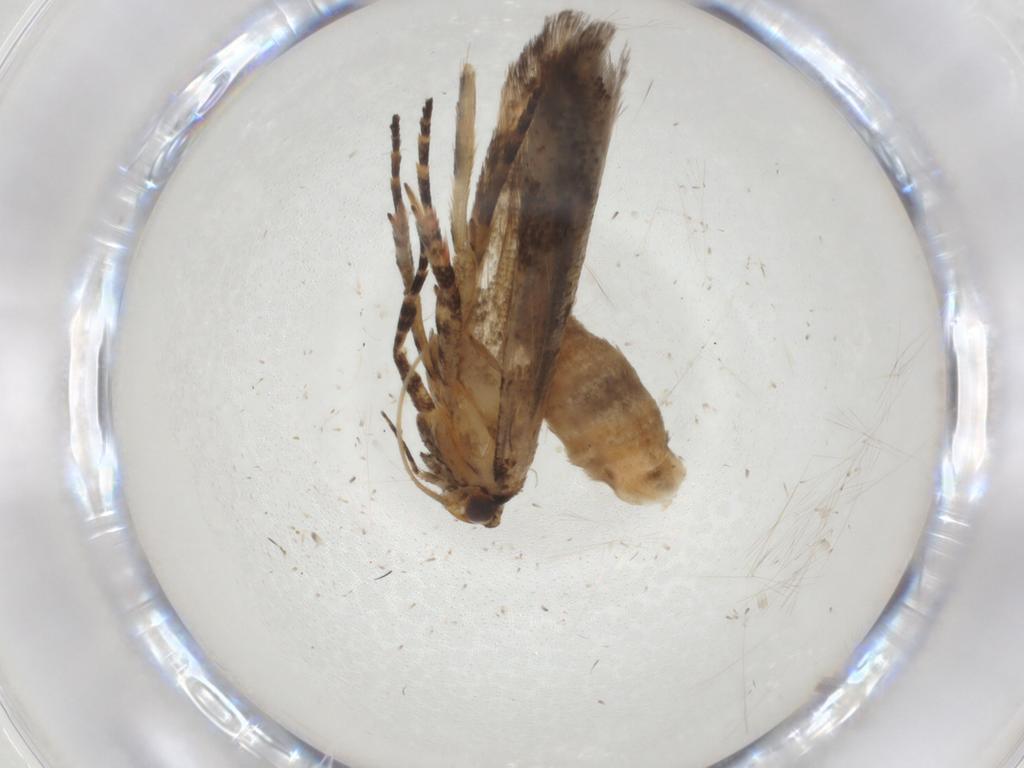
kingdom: Animalia
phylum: Arthropoda
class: Insecta
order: Lepidoptera
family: Gelechiidae
